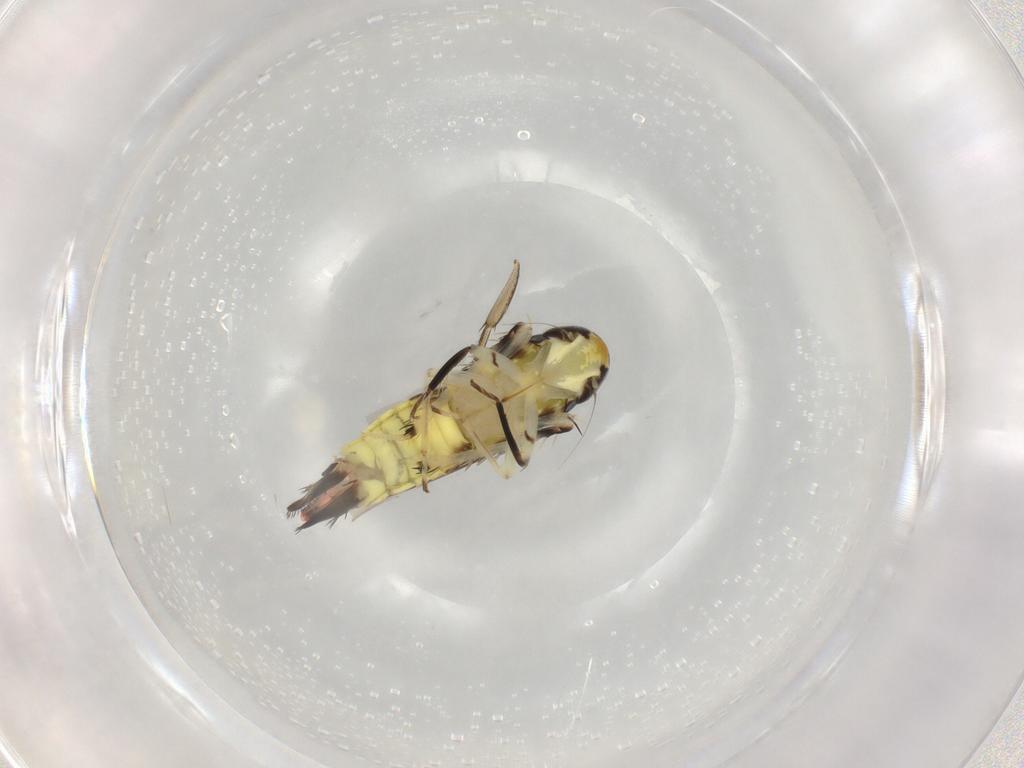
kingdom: Animalia
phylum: Arthropoda
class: Insecta
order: Hemiptera
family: Cicadellidae
